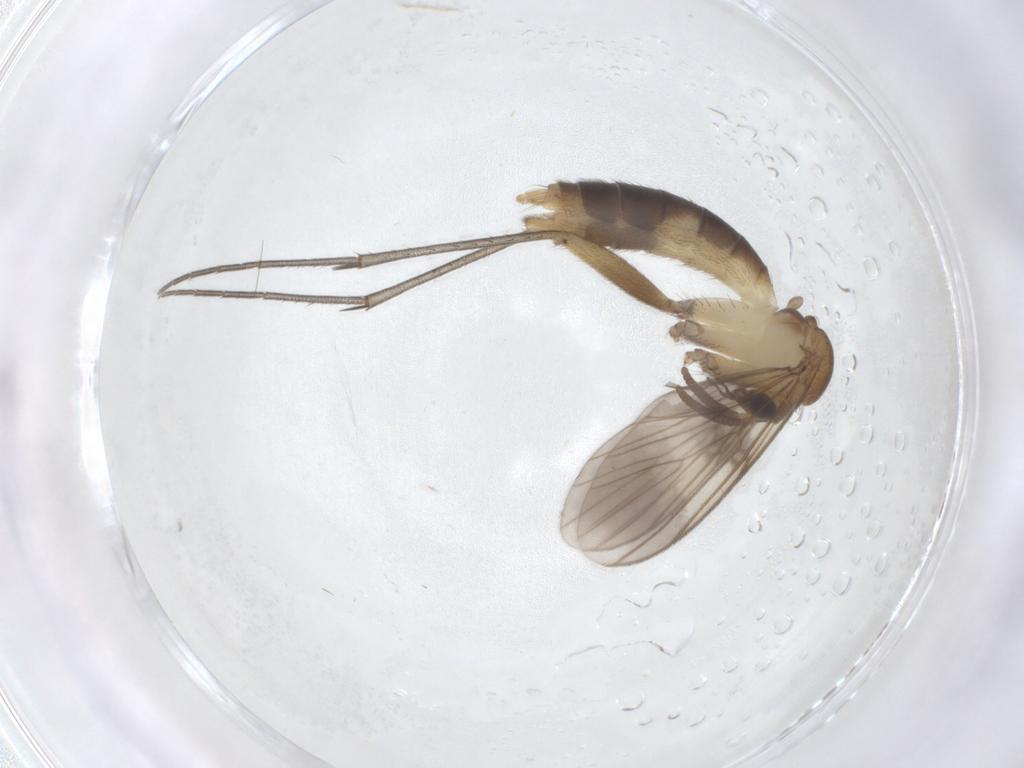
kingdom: Animalia
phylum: Arthropoda
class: Insecta
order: Diptera
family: Mycetophilidae
